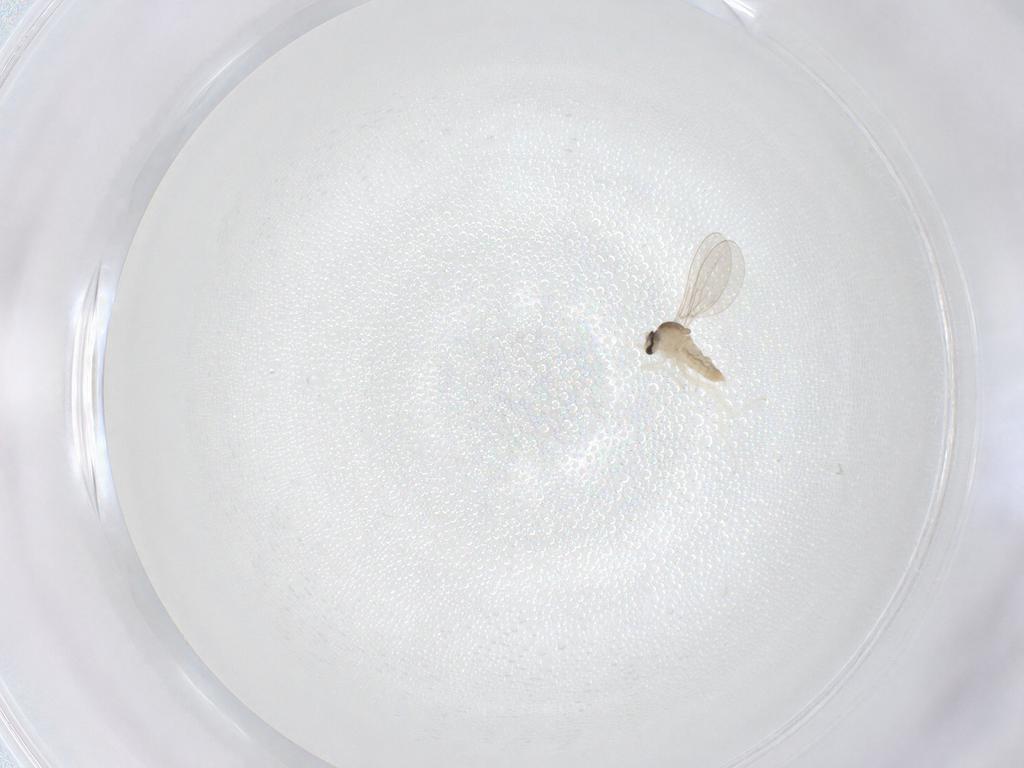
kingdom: Animalia
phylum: Arthropoda
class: Insecta
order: Diptera
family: Cecidomyiidae
